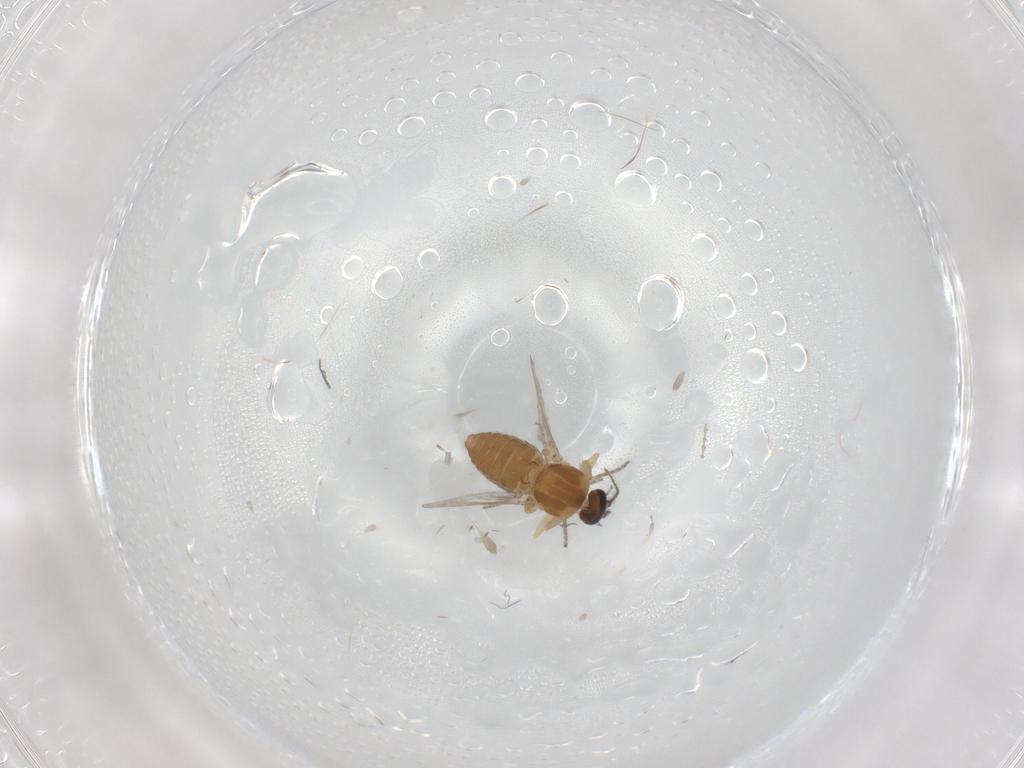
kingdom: Animalia
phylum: Arthropoda
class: Insecta
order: Diptera
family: Ceratopogonidae
